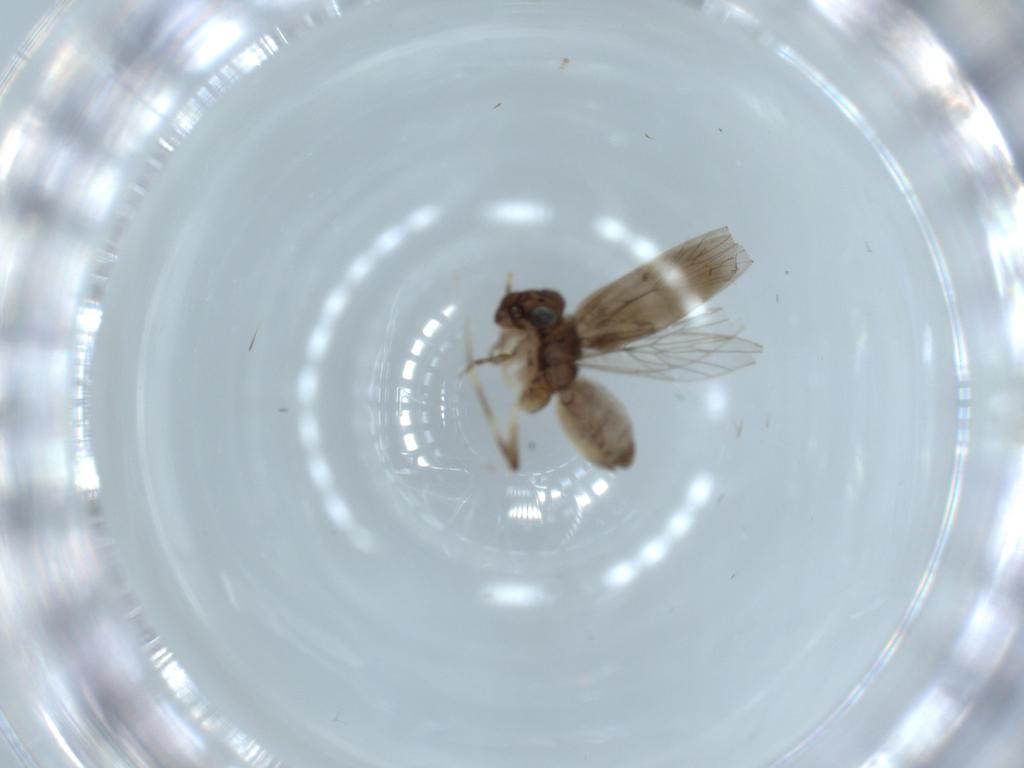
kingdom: Animalia
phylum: Arthropoda
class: Insecta
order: Psocodea
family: Lepidopsocidae
